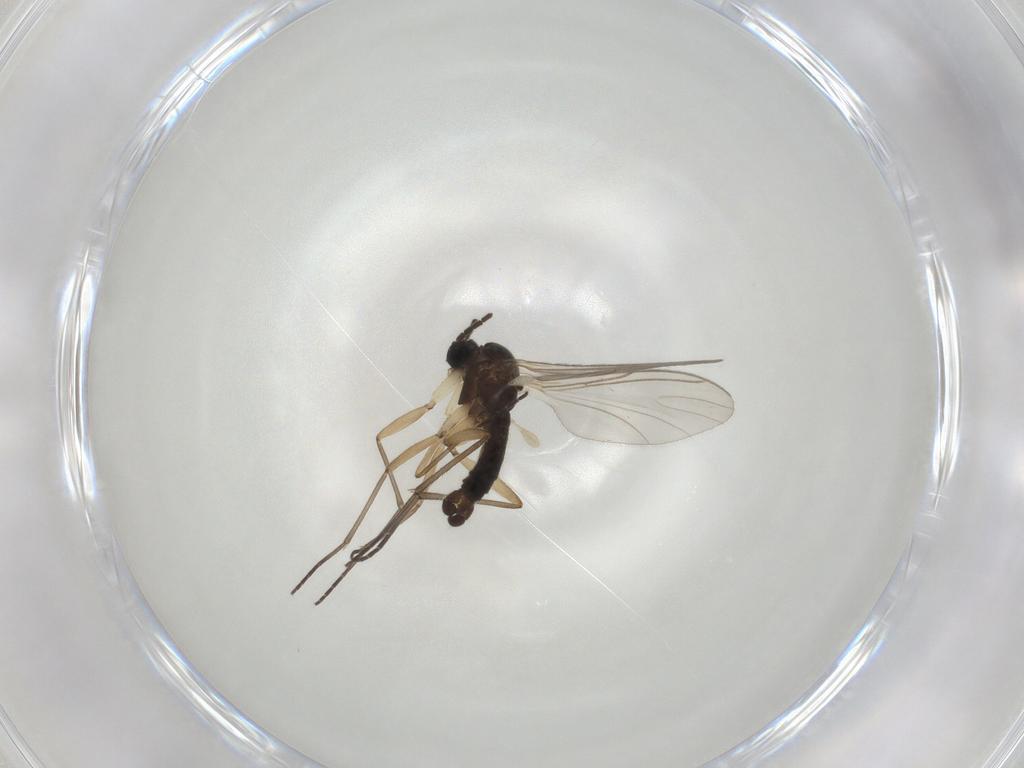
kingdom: Animalia
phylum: Arthropoda
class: Insecta
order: Diptera
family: Sciaridae
